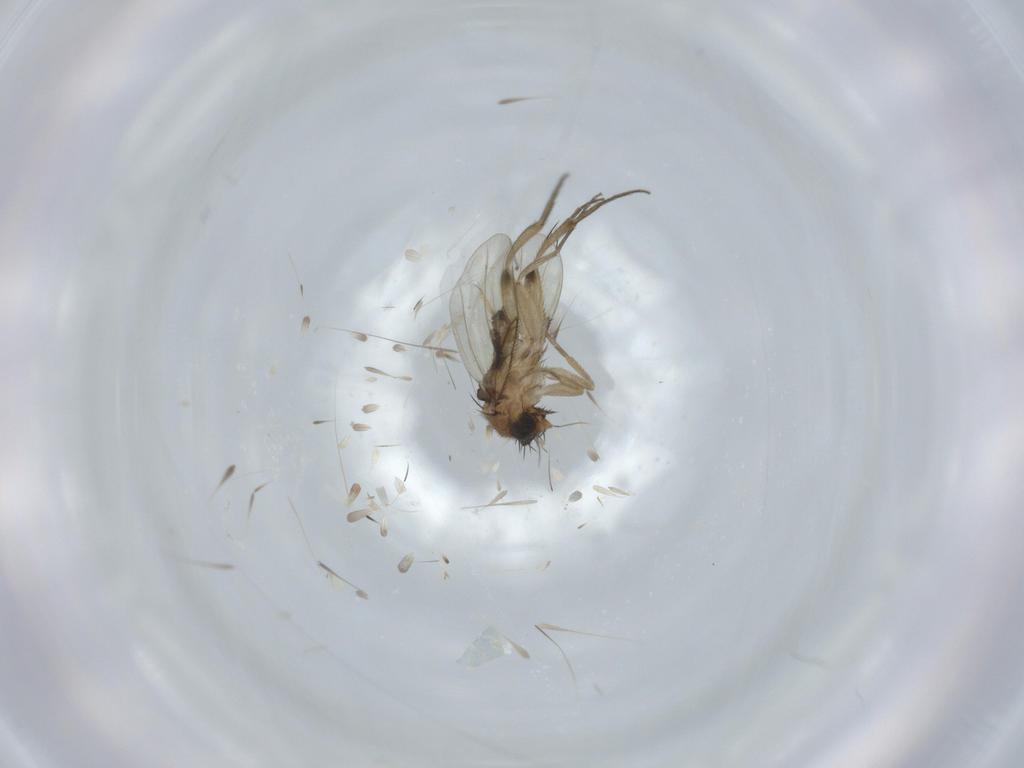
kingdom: Animalia
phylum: Arthropoda
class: Insecta
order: Diptera
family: Phoridae
